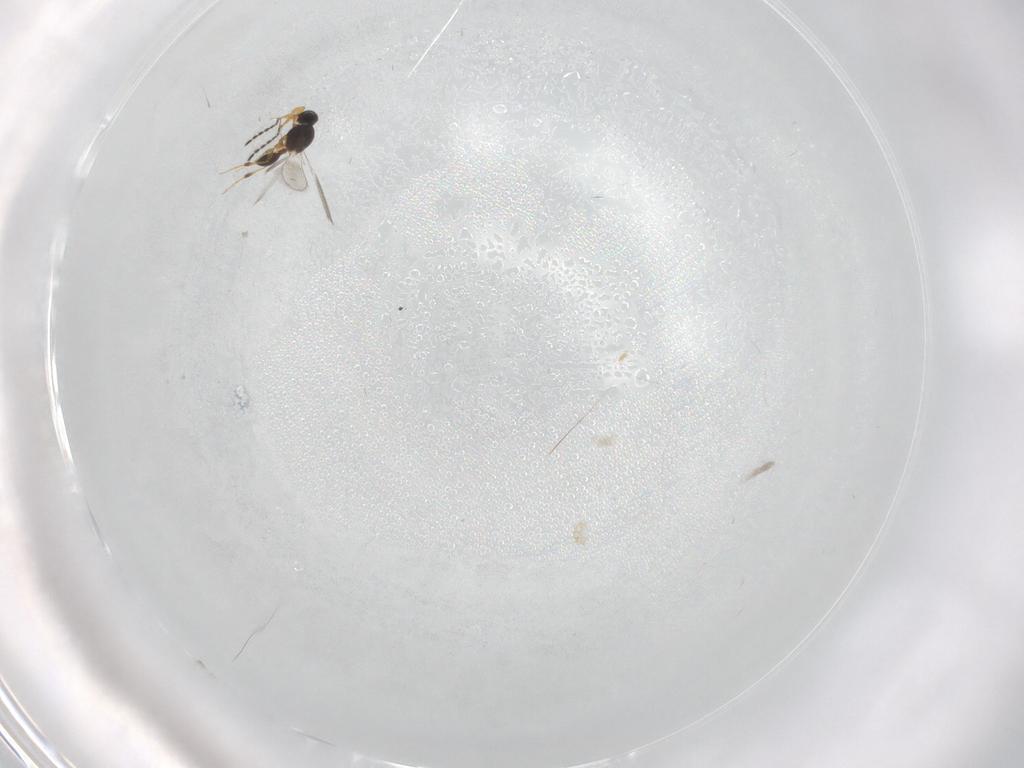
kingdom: Animalia
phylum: Arthropoda
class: Insecta
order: Hymenoptera
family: Platygastridae
